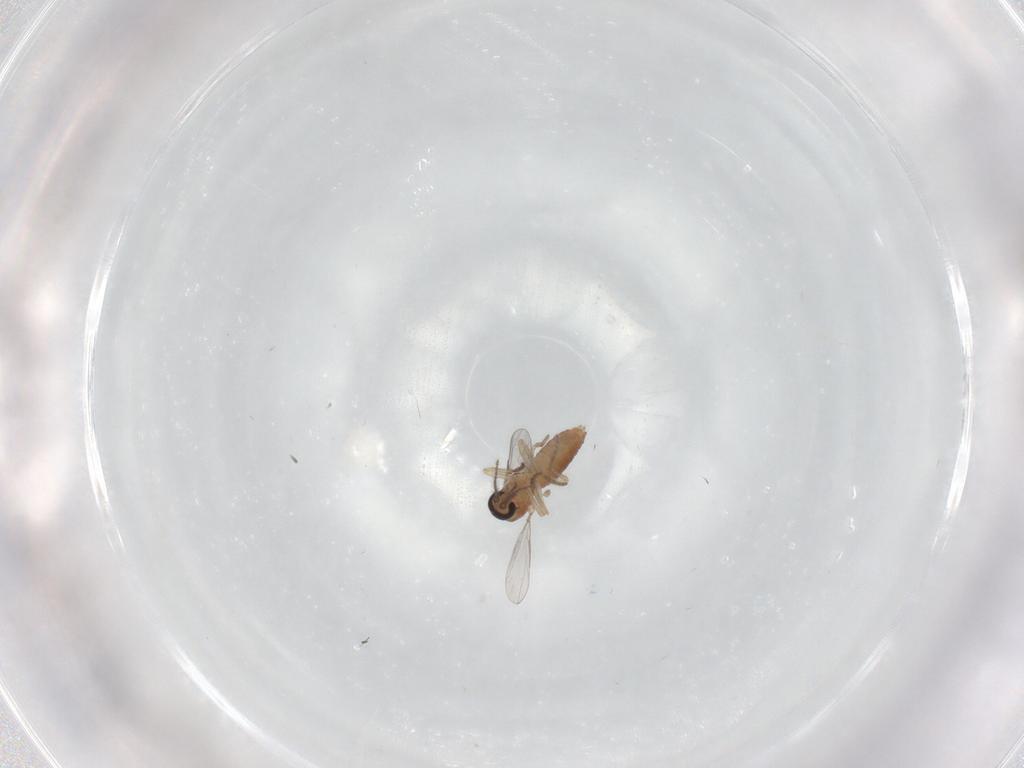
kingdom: Animalia
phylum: Arthropoda
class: Insecta
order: Diptera
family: Ceratopogonidae
